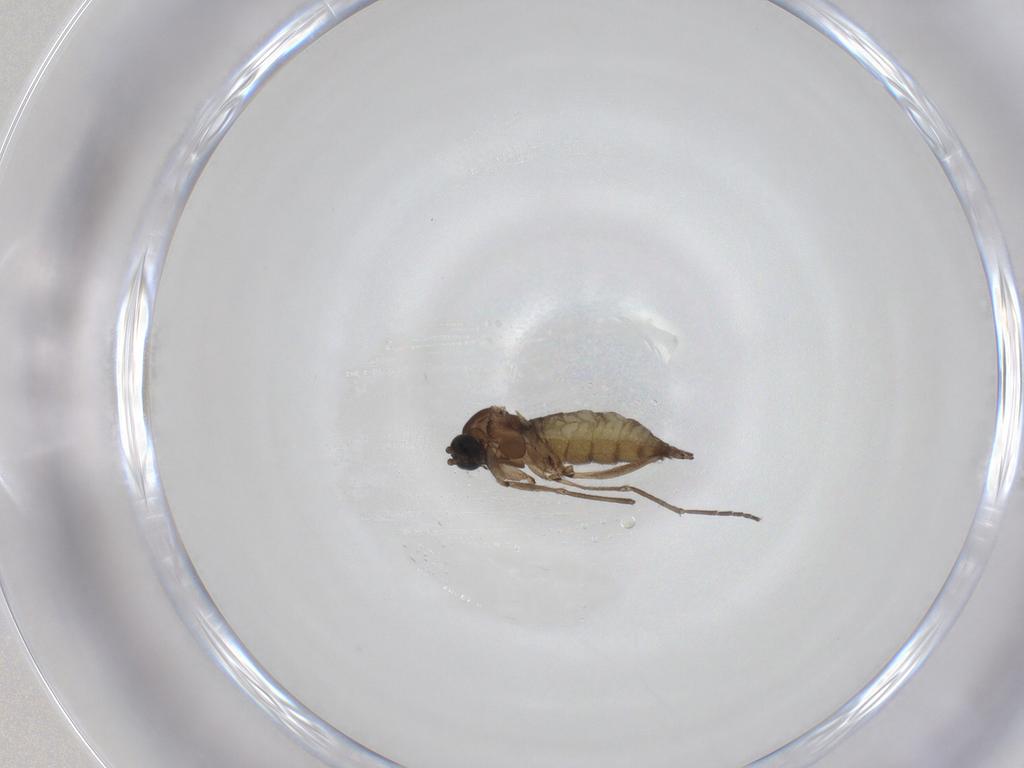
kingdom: Animalia
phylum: Arthropoda
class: Insecta
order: Diptera
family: Sciaridae
